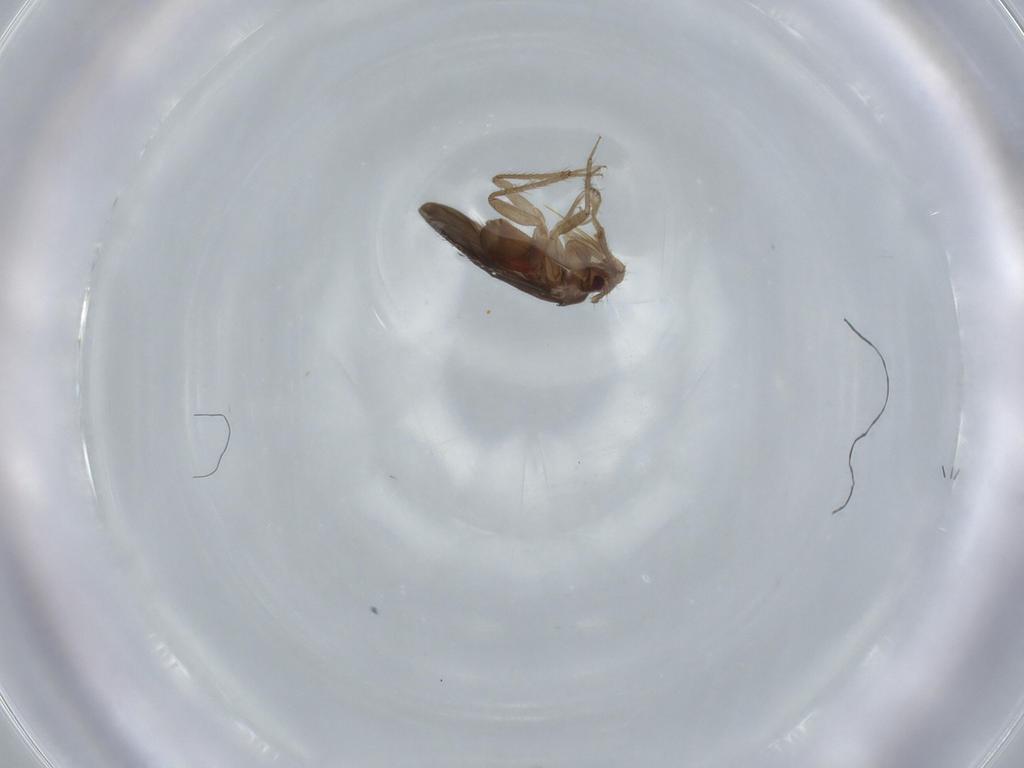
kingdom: Animalia
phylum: Arthropoda
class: Insecta
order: Hemiptera
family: Ceratocombidae
